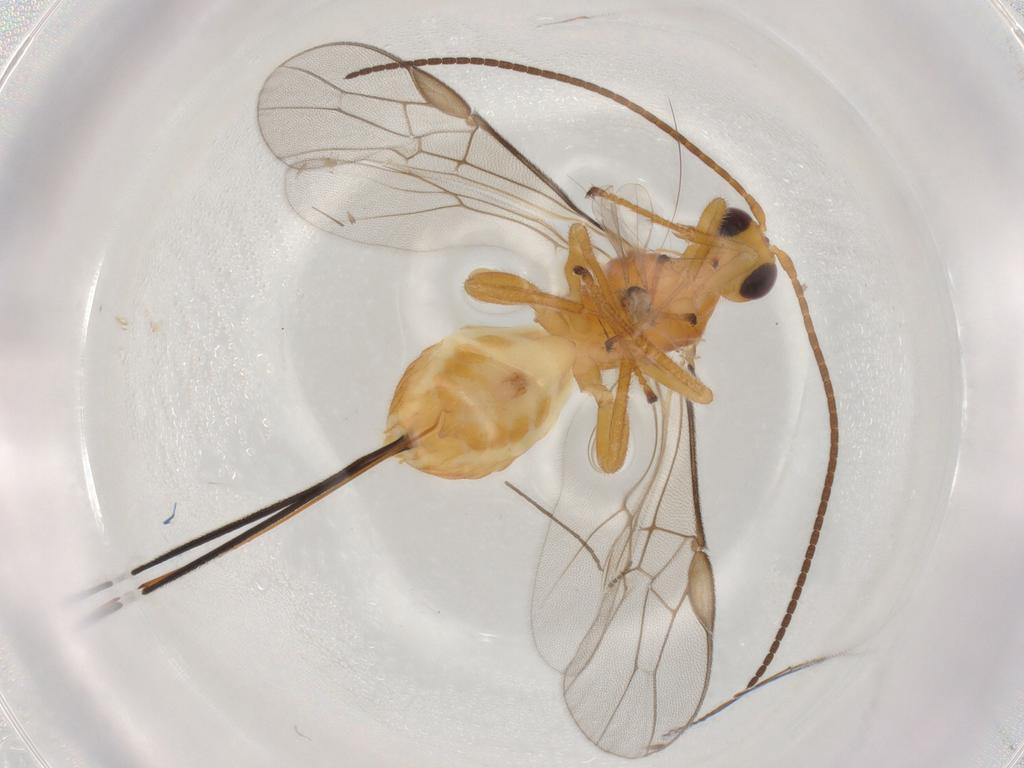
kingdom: Animalia
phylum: Arthropoda
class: Insecta
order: Hymenoptera
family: Braconidae
